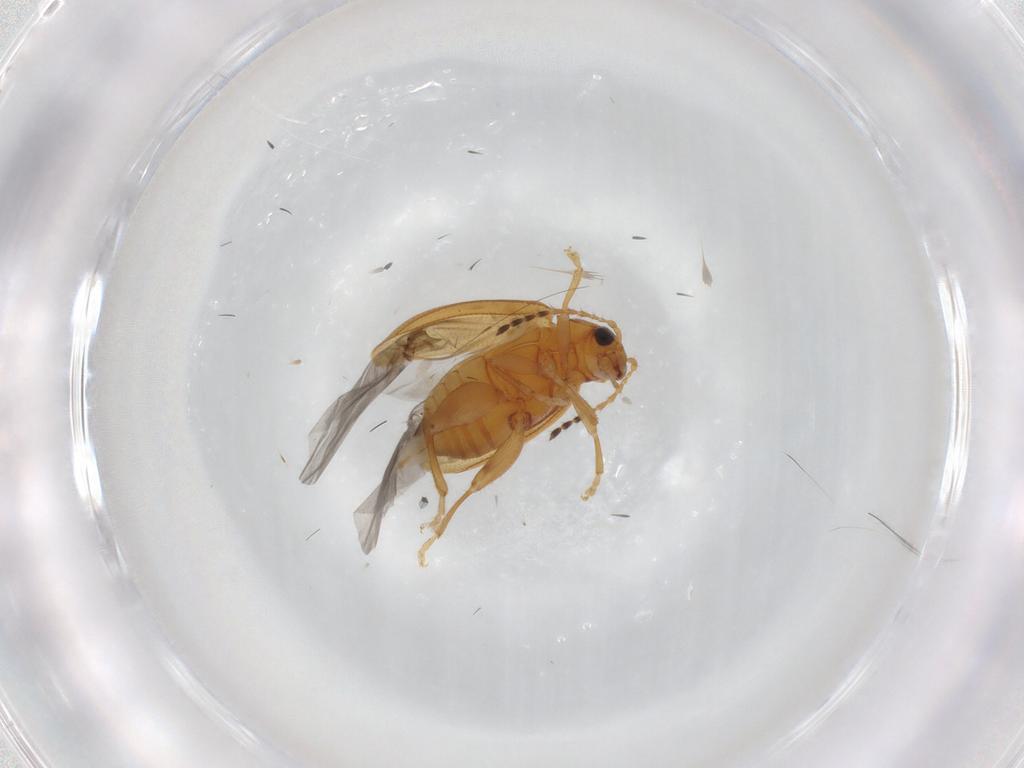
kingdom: Animalia
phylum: Arthropoda
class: Insecta
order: Coleoptera
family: Chrysomelidae
